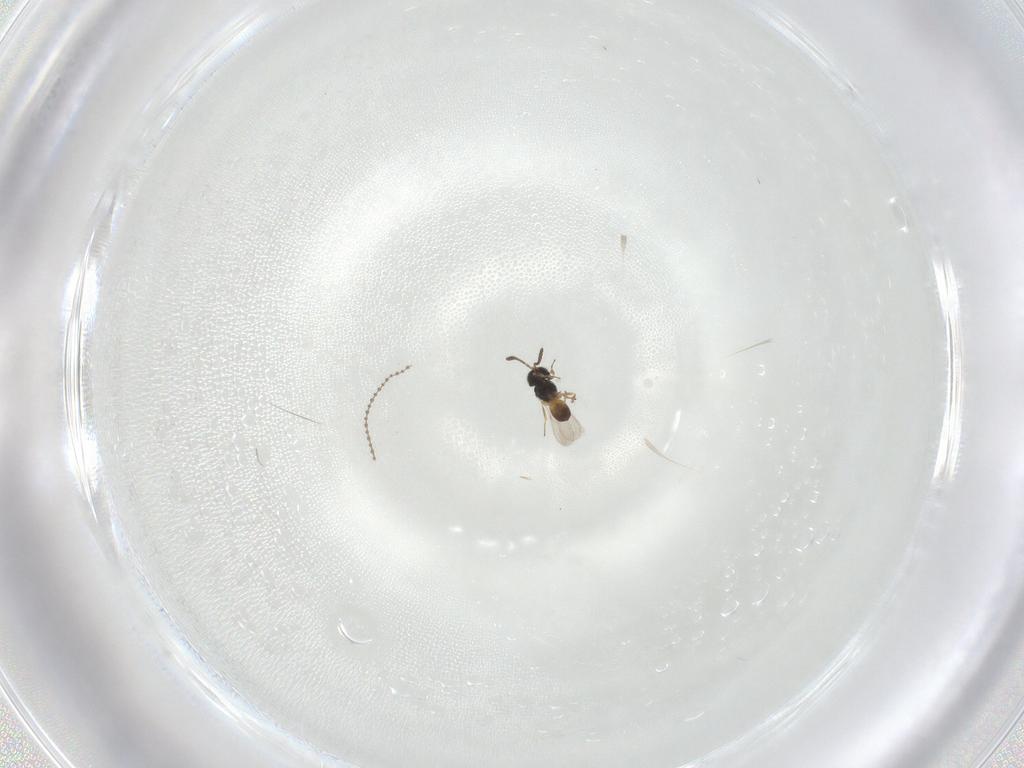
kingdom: Animalia
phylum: Arthropoda
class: Insecta
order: Hymenoptera
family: Scelionidae
